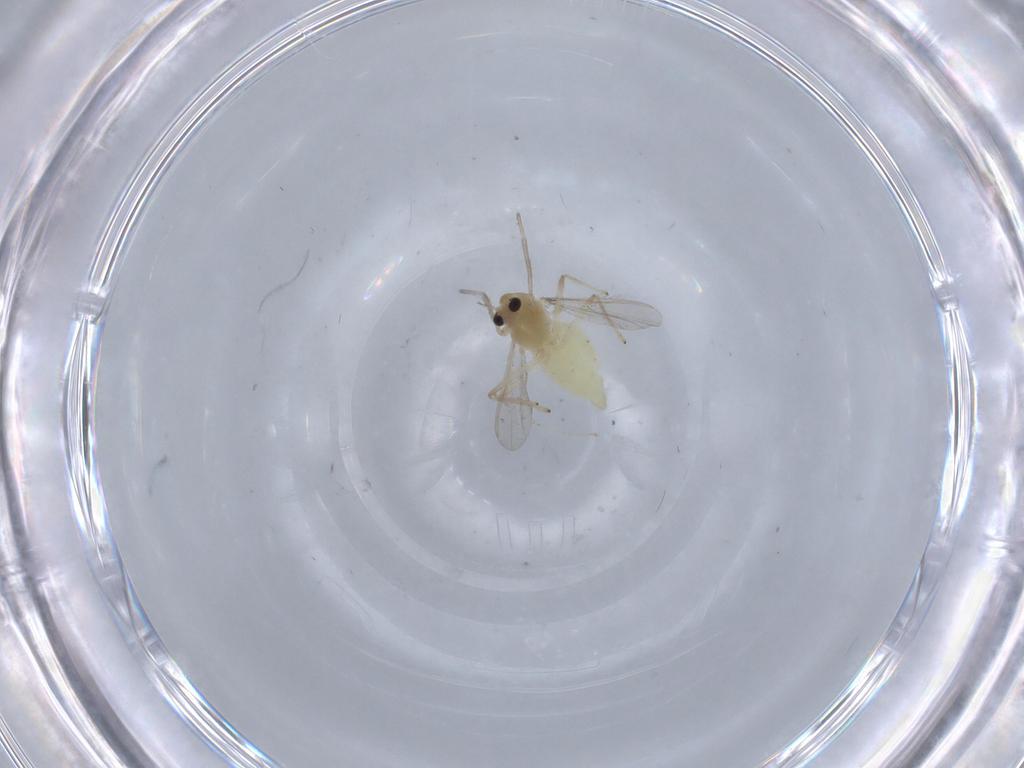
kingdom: Animalia
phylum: Arthropoda
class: Insecta
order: Diptera
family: Chironomidae
